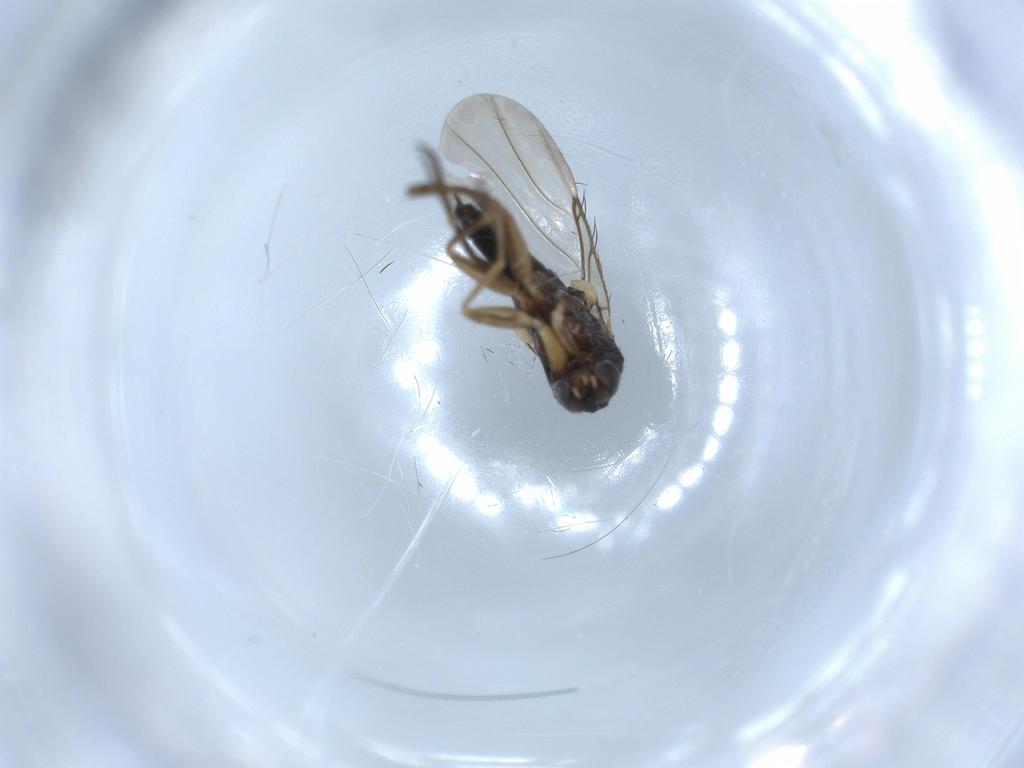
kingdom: Animalia
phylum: Arthropoda
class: Insecta
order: Diptera
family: Phoridae
